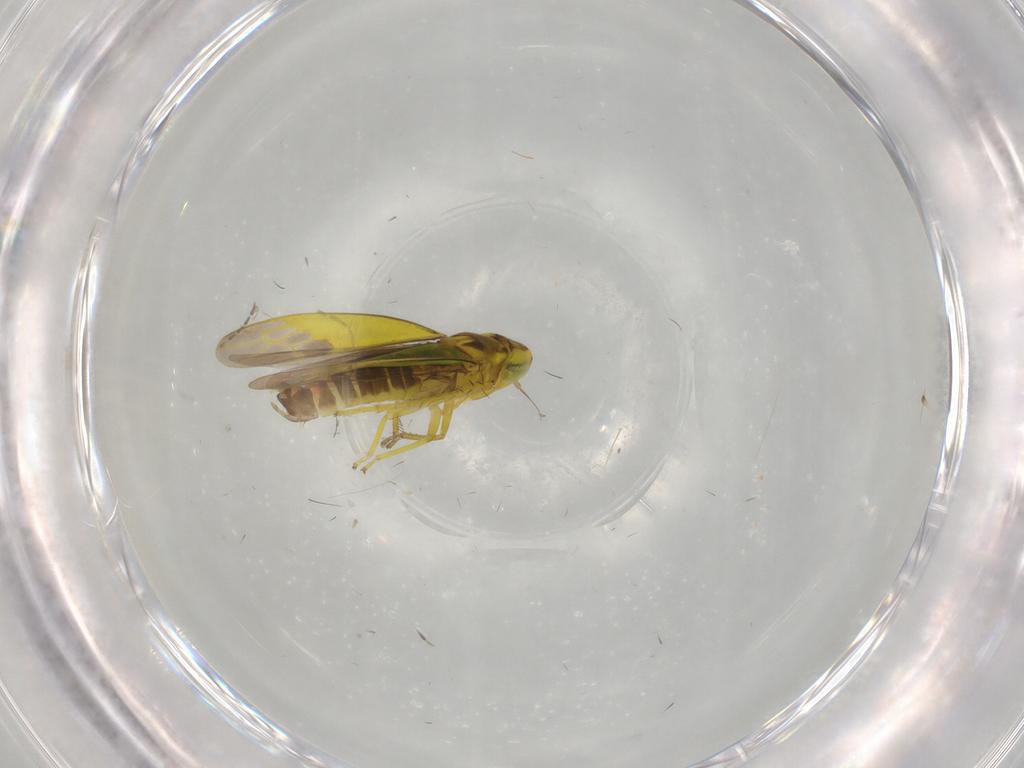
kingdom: Animalia
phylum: Arthropoda
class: Insecta
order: Hemiptera
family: Cicadellidae
